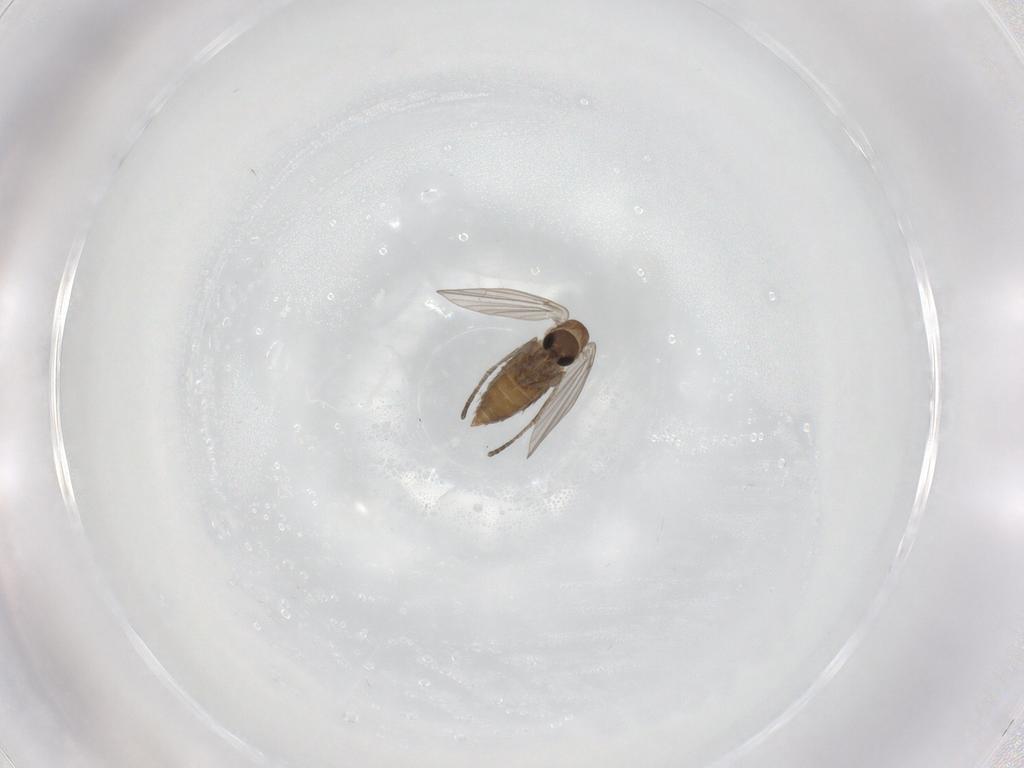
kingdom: Animalia
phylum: Arthropoda
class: Insecta
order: Diptera
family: Chironomidae
